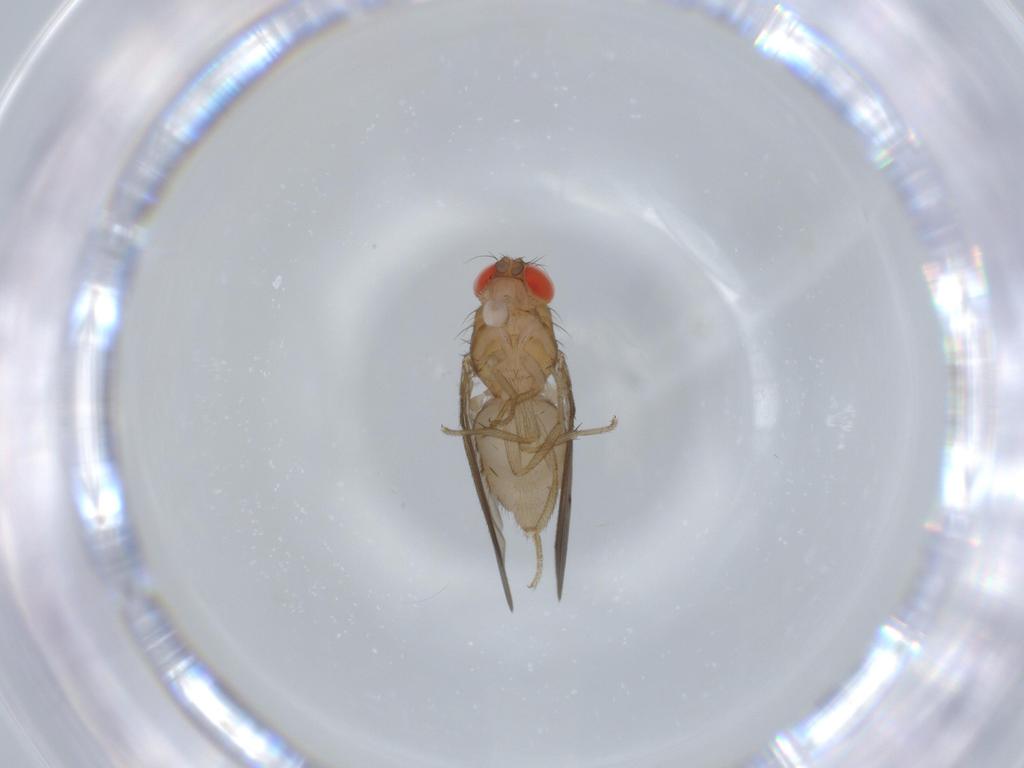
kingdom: Animalia
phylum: Arthropoda
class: Insecta
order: Diptera
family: Drosophilidae
